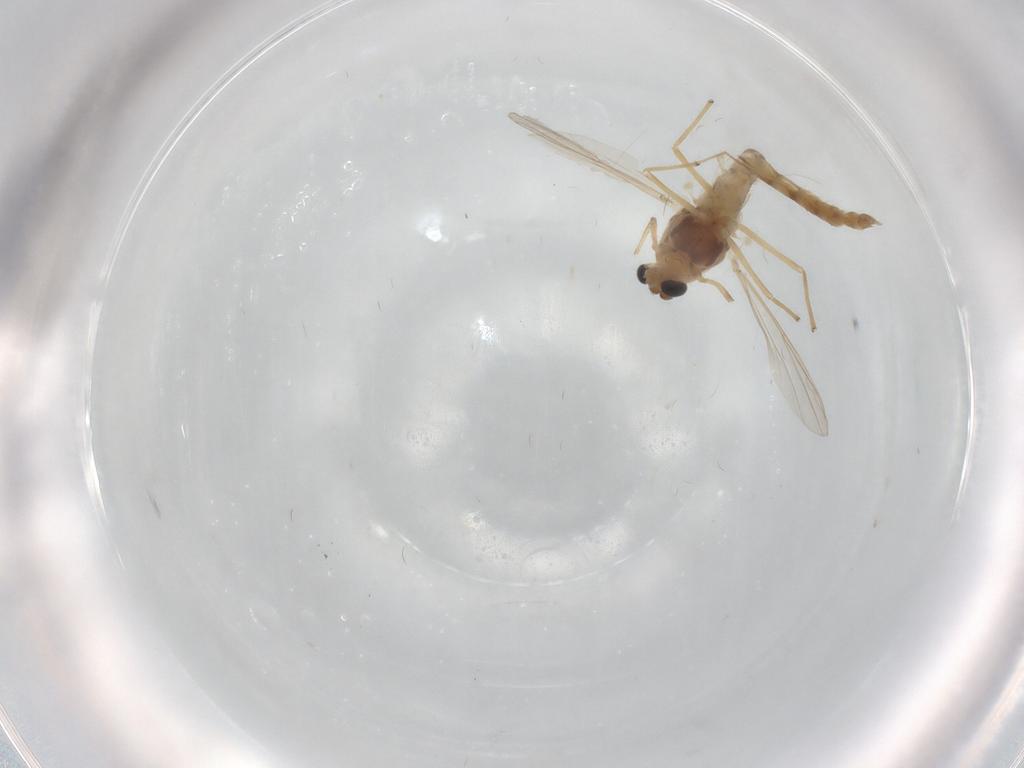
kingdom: Animalia
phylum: Arthropoda
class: Insecta
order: Diptera
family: Chironomidae
